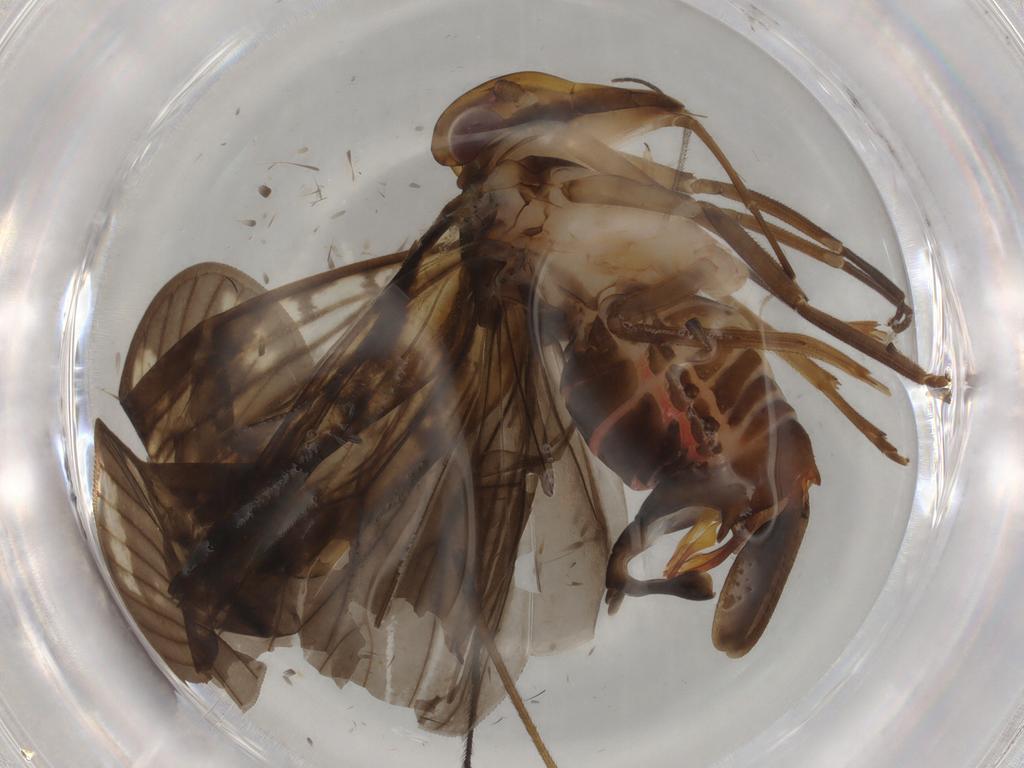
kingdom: Animalia
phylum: Arthropoda
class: Insecta
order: Hemiptera
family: Cixiidae
